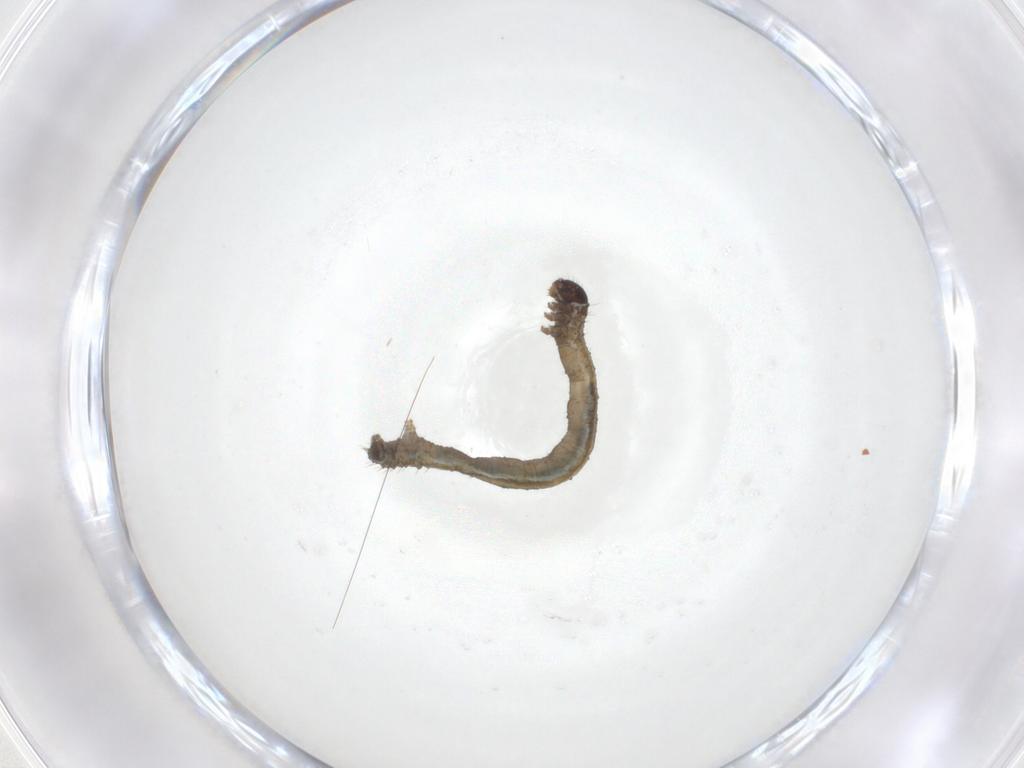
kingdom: Animalia
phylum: Arthropoda
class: Insecta
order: Lepidoptera
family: Geometridae
